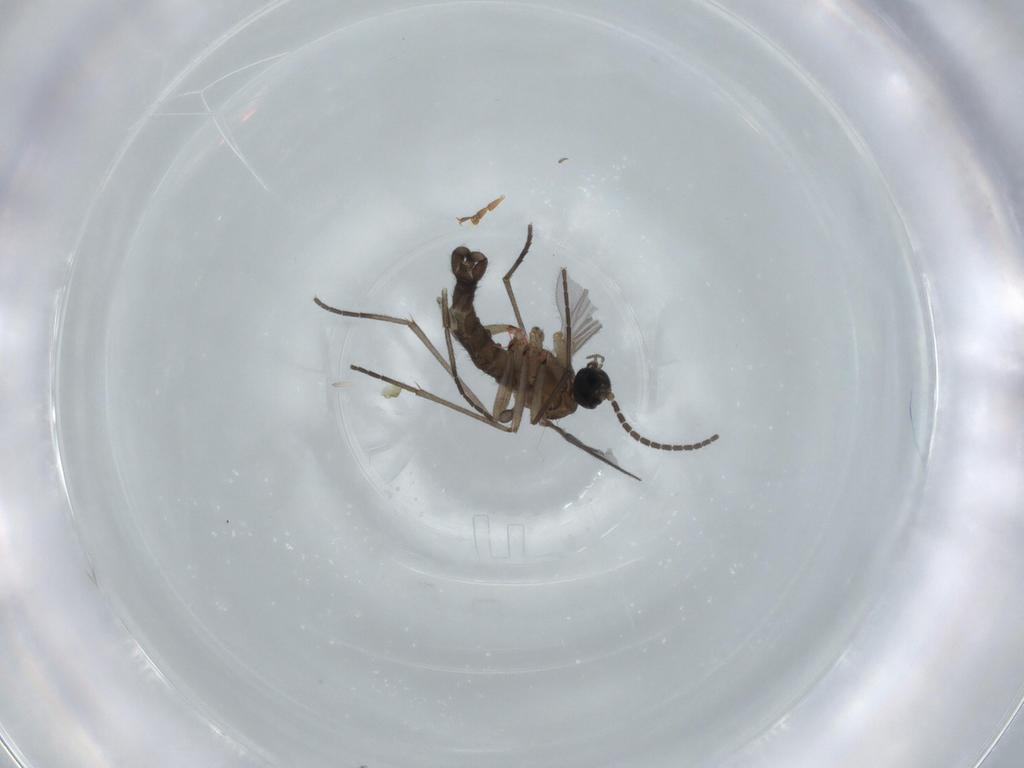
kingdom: Animalia
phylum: Arthropoda
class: Insecta
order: Diptera
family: Sciaridae
